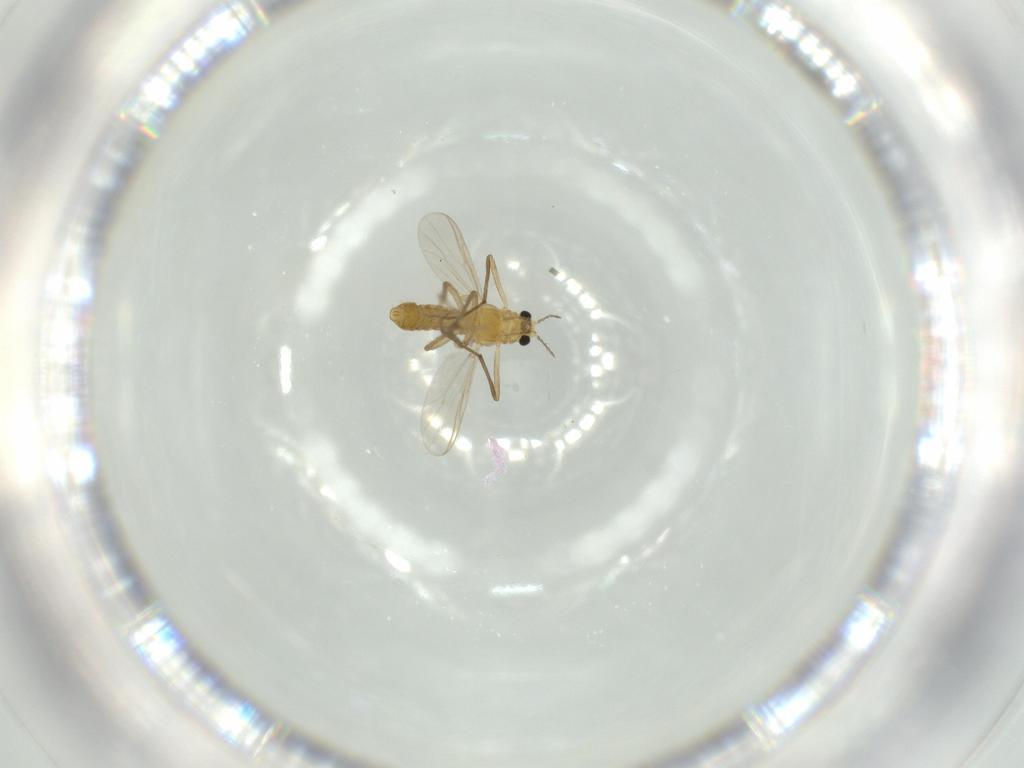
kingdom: Animalia
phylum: Arthropoda
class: Insecta
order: Diptera
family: Chironomidae
